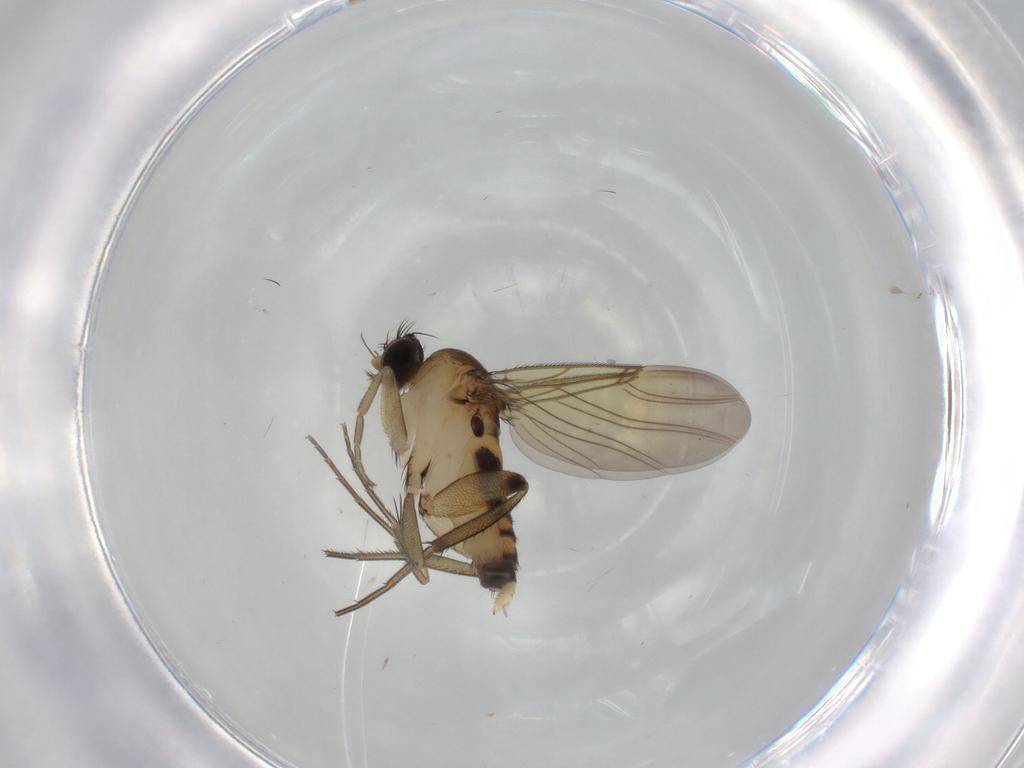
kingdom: Animalia
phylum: Arthropoda
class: Insecta
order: Diptera
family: Phoridae
